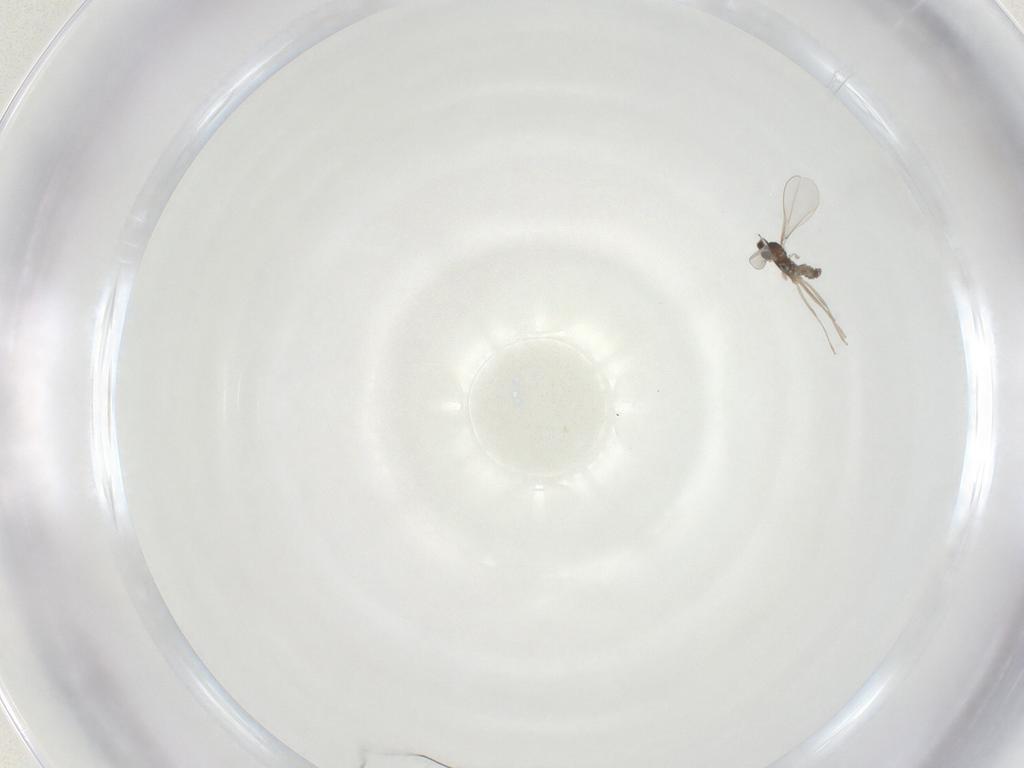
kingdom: Animalia
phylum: Arthropoda
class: Insecta
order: Diptera
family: Cecidomyiidae
